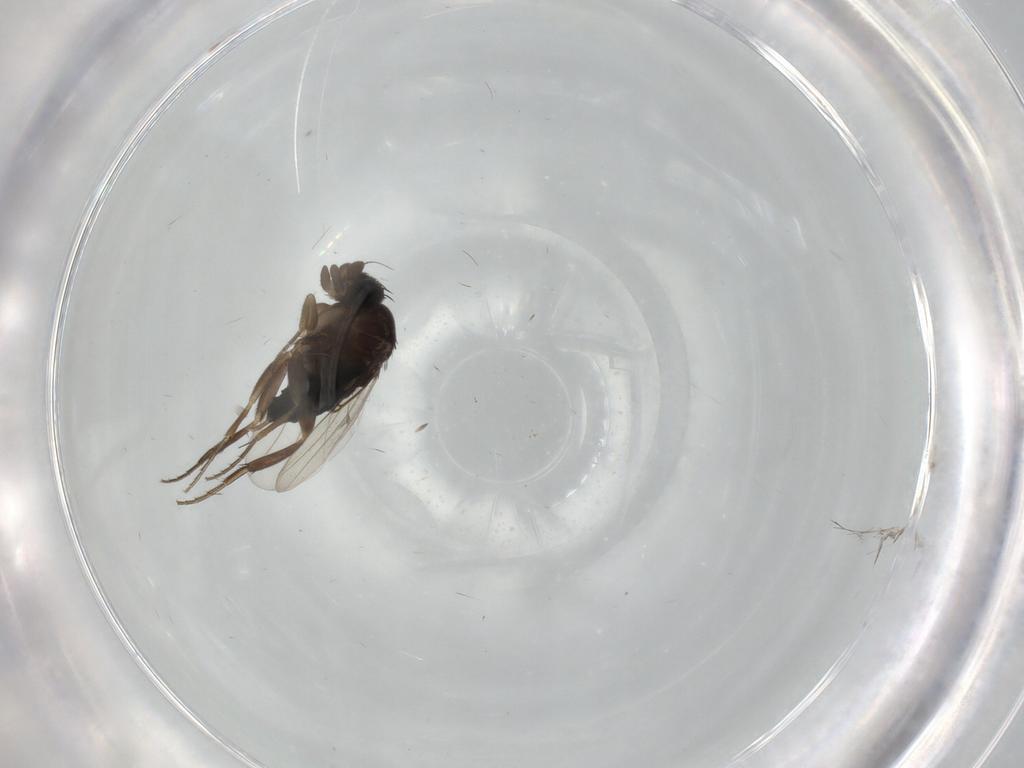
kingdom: Animalia
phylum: Arthropoda
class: Insecta
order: Diptera
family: Phoridae
